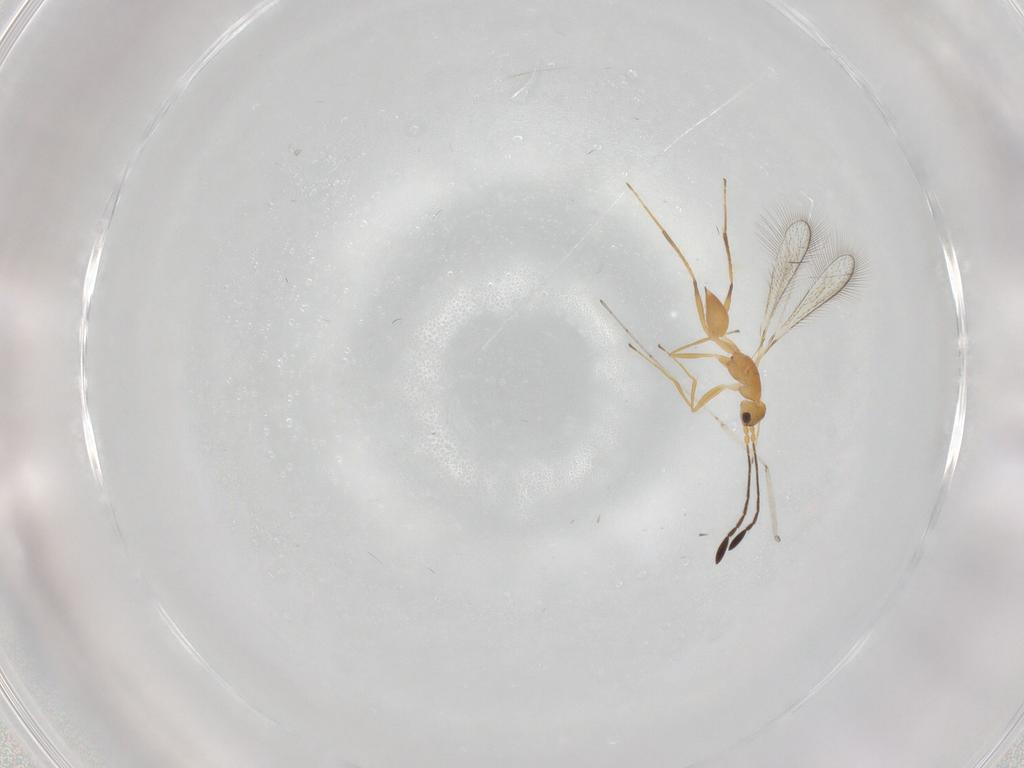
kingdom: Animalia
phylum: Arthropoda
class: Insecta
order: Hymenoptera
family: Mymaridae
